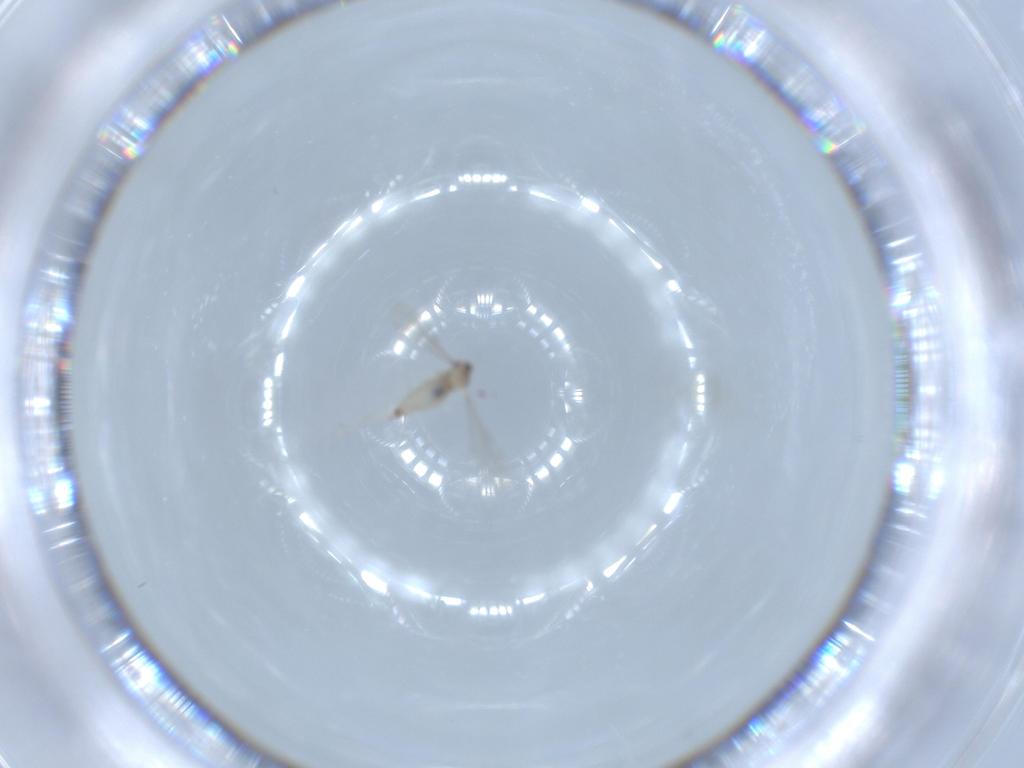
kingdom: Animalia
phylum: Arthropoda
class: Insecta
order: Diptera
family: Cecidomyiidae
